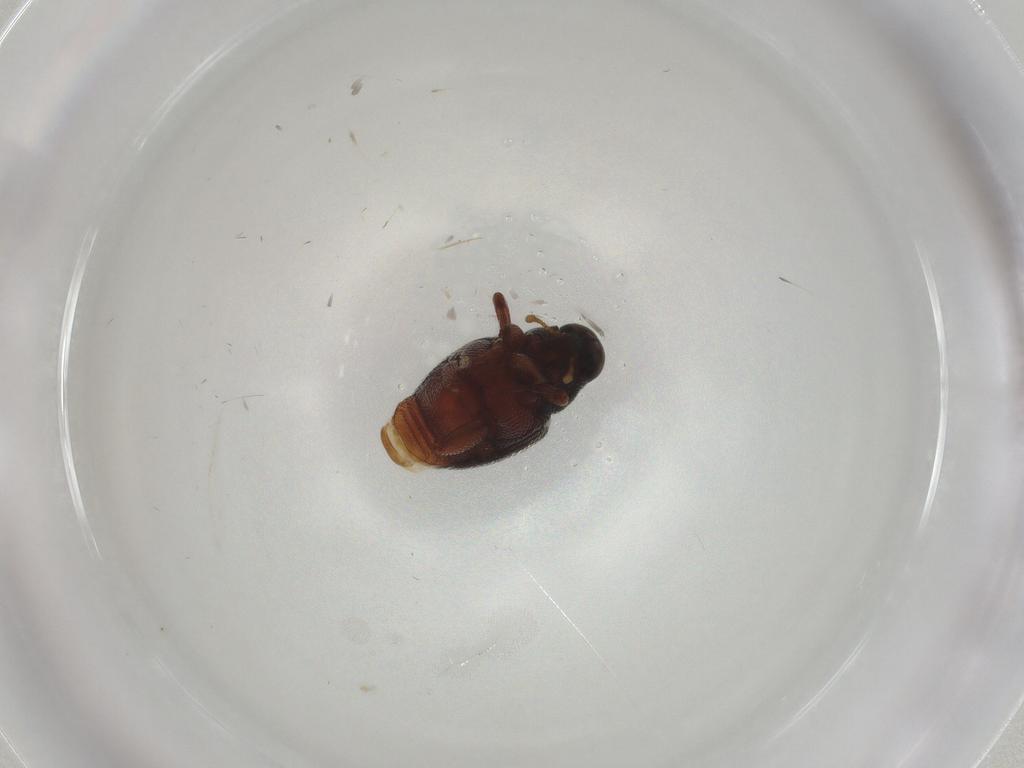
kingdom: Animalia
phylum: Arthropoda
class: Insecta
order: Coleoptera
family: Curculionidae
